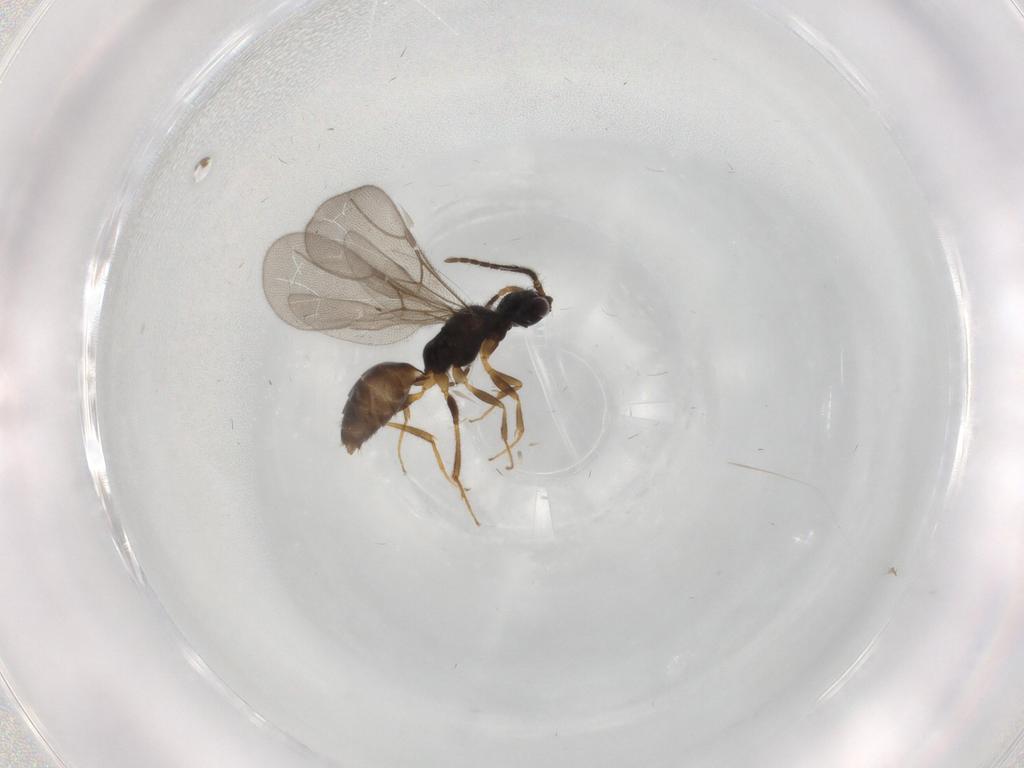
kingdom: Animalia
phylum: Arthropoda
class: Insecta
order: Hymenoptera
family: Bethylidae
